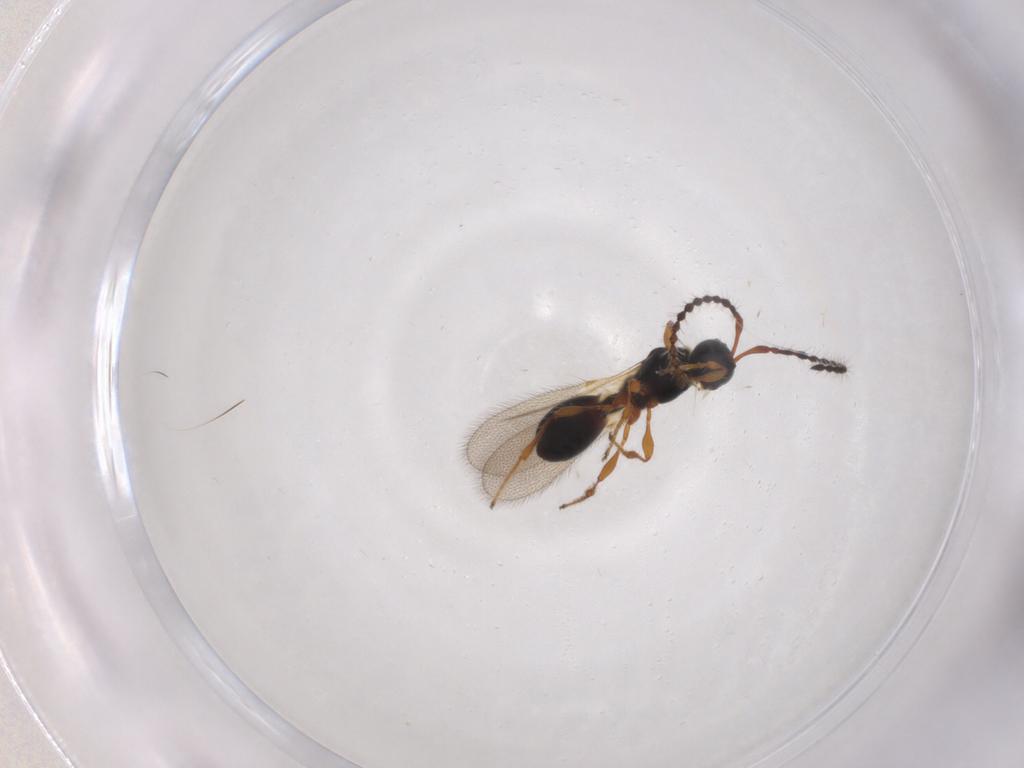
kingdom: Animalia
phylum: Arthropoda
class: Insecta
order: Hymenoptera
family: Diapriidae
